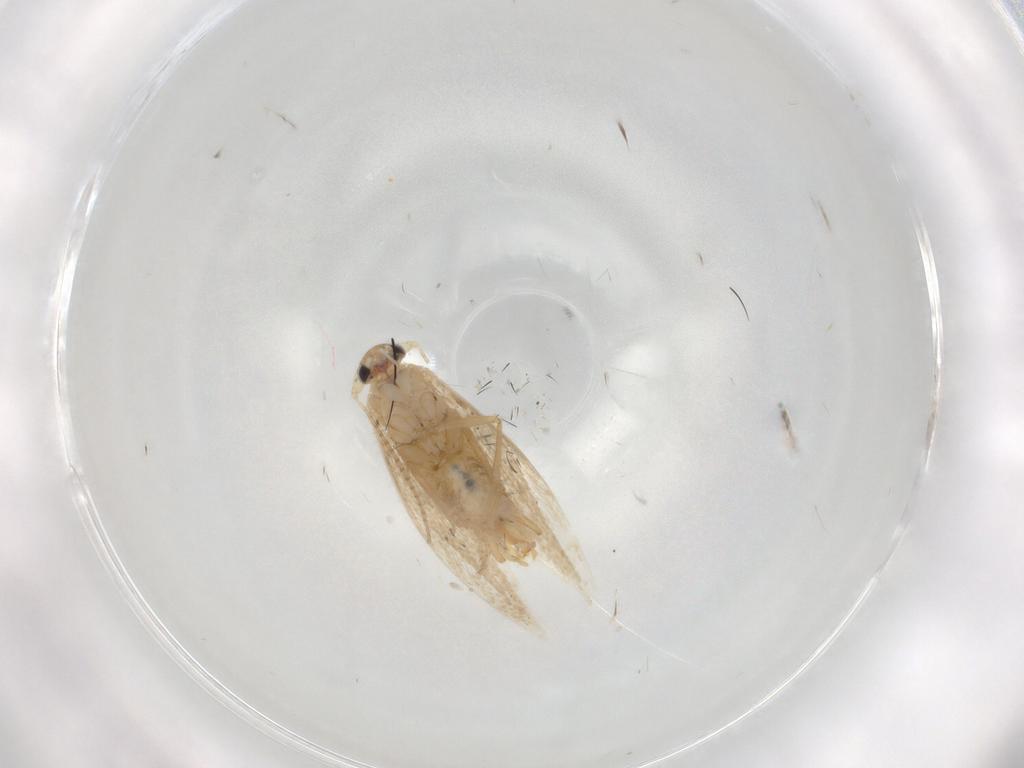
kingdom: Animalia
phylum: Arthropoda
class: Insecta
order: Lepidoptera
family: Bucculatricidae
